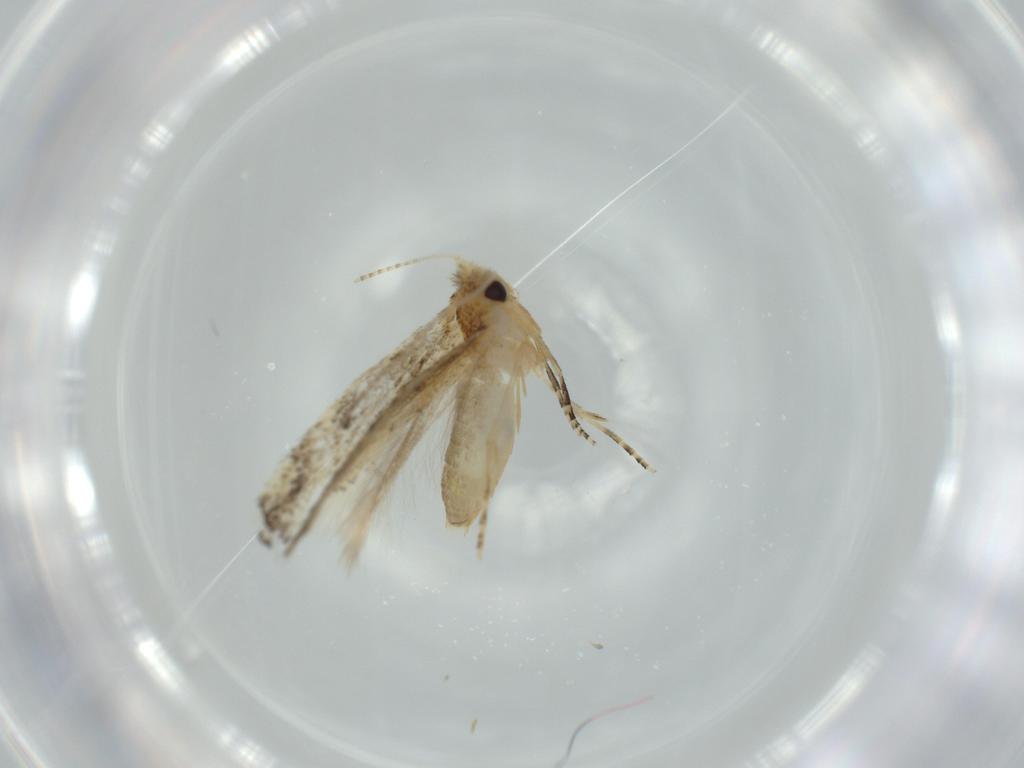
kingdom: Animalia
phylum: Arthropoda
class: Insecta
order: Lepidoptera
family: Bucculatricidae
